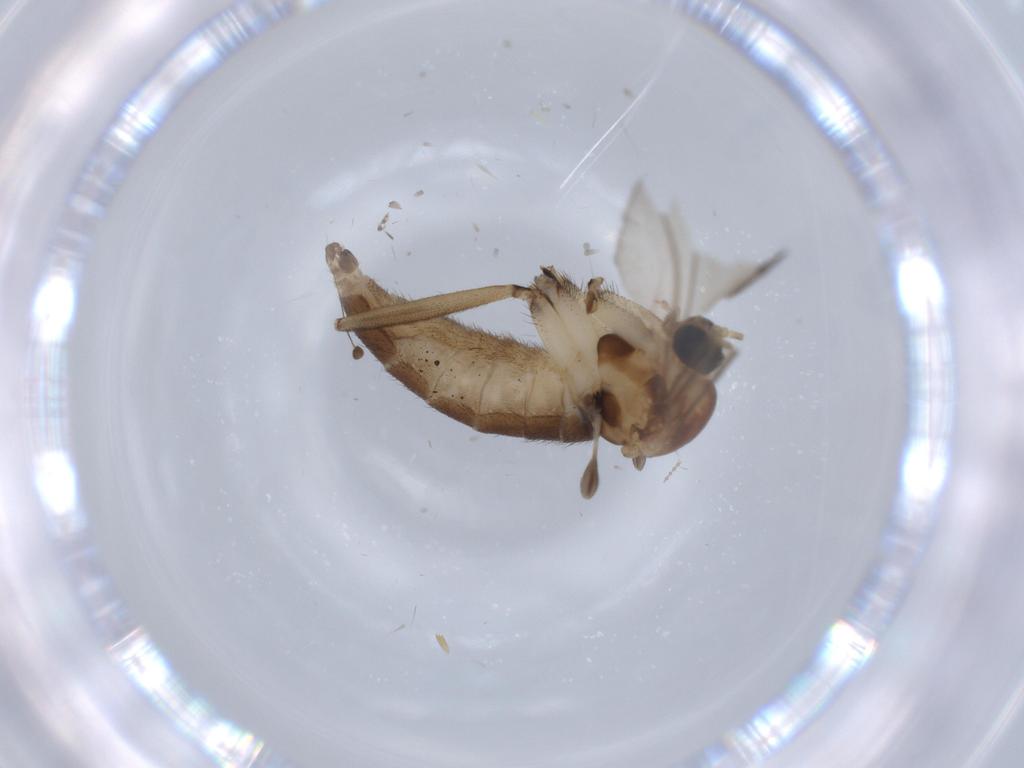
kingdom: Animalia
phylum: Arthropoda
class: Insecta
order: Diptera
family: Sciaridae
